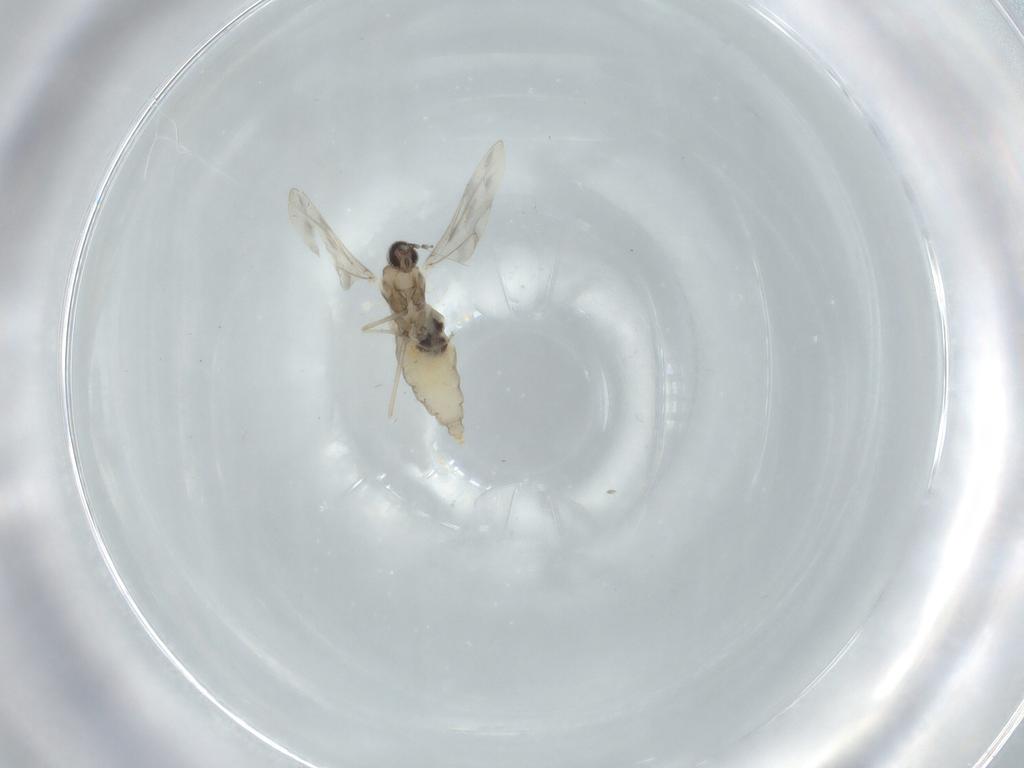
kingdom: Animalia
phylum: Arthropoda
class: Insecta
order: Diptera
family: Cecidomyiidae
